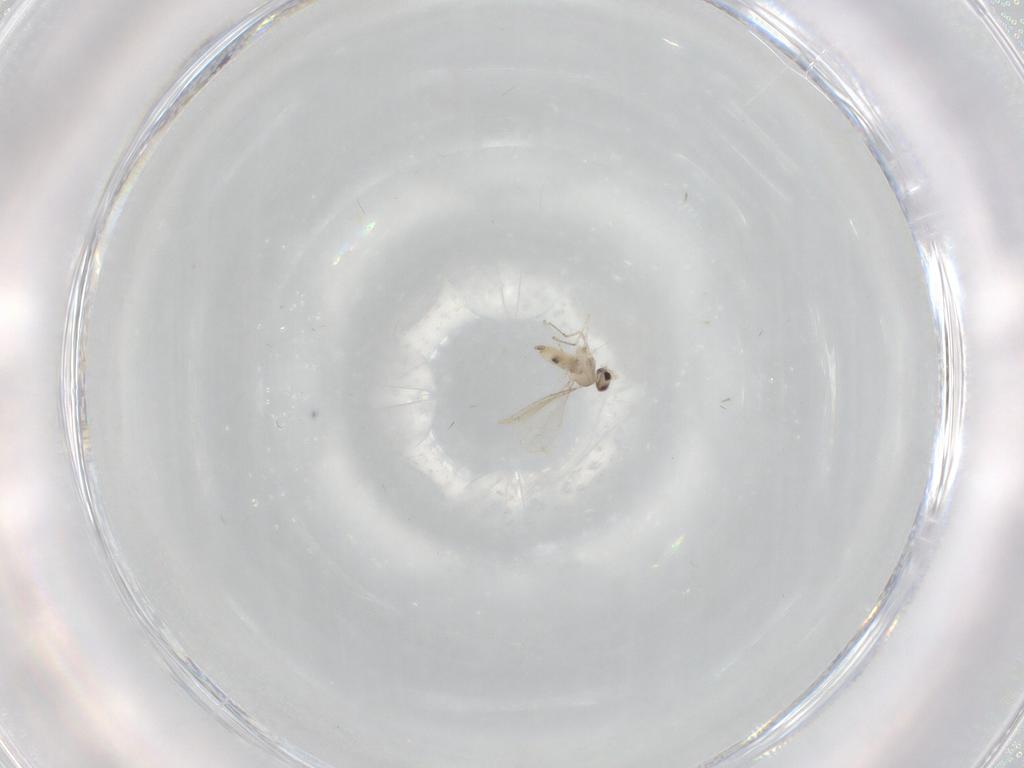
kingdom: Animalia
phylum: Arthropoda
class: Insecta
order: Diptera
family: Cecidomyiidae
